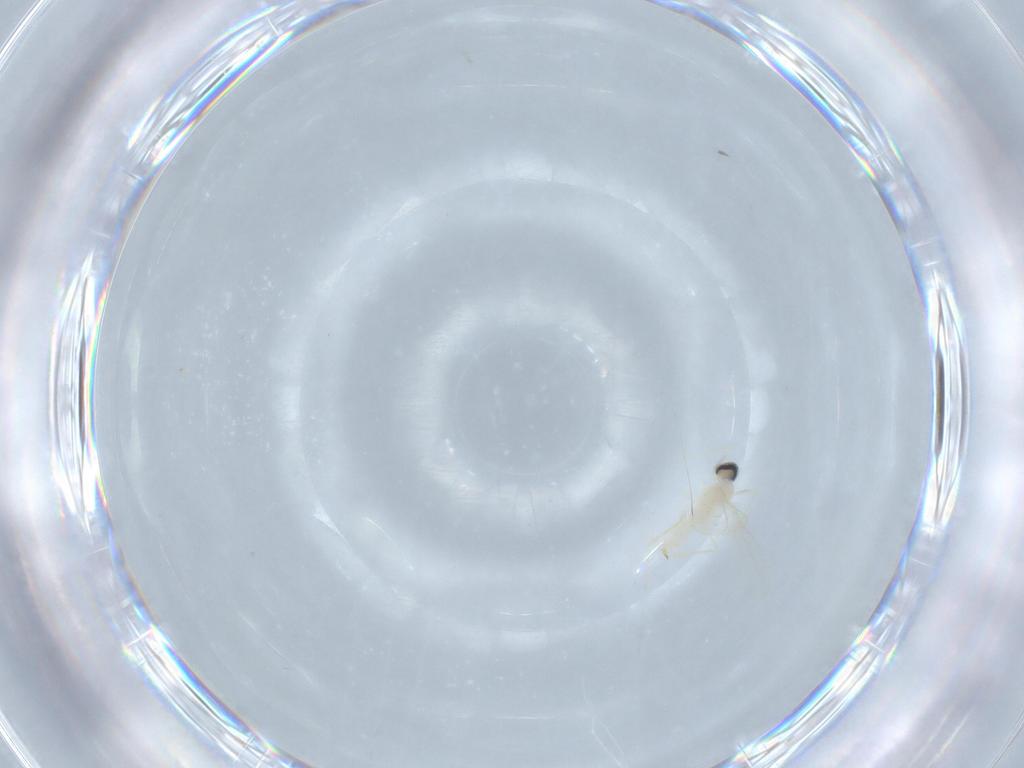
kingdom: Animalia
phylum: Arthropoda
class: Insecta
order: Diptera
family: Cecidomyiidae
